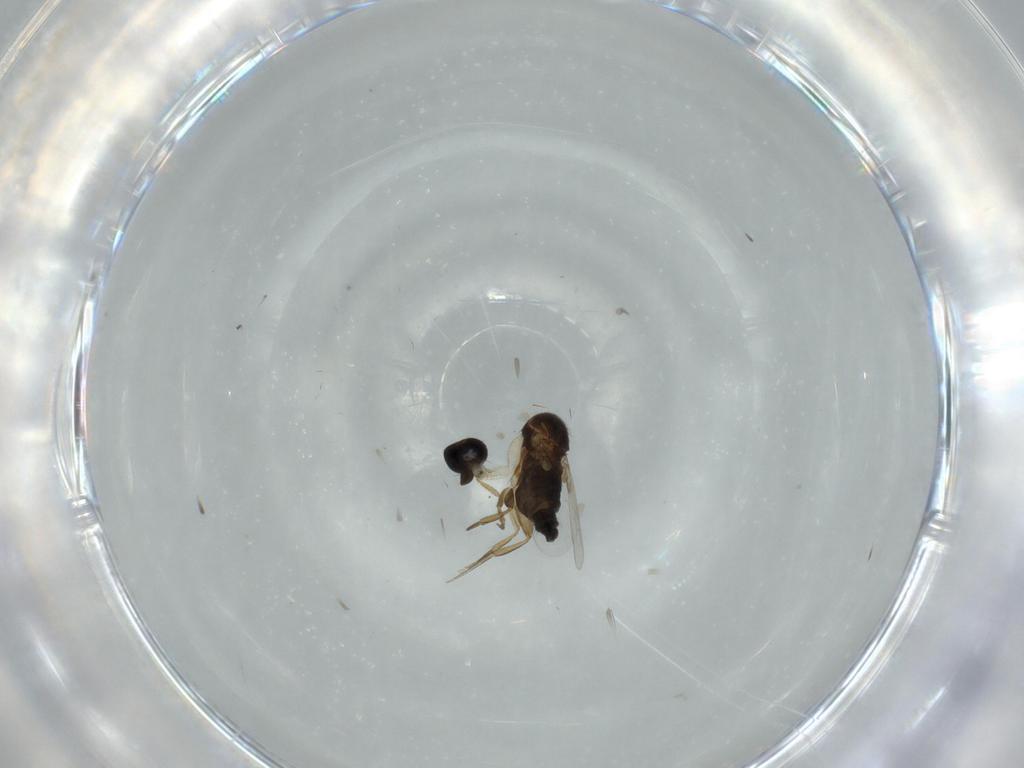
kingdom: Animalia
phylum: Arthropoda
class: Insecta
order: Diptera
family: Phoridae
